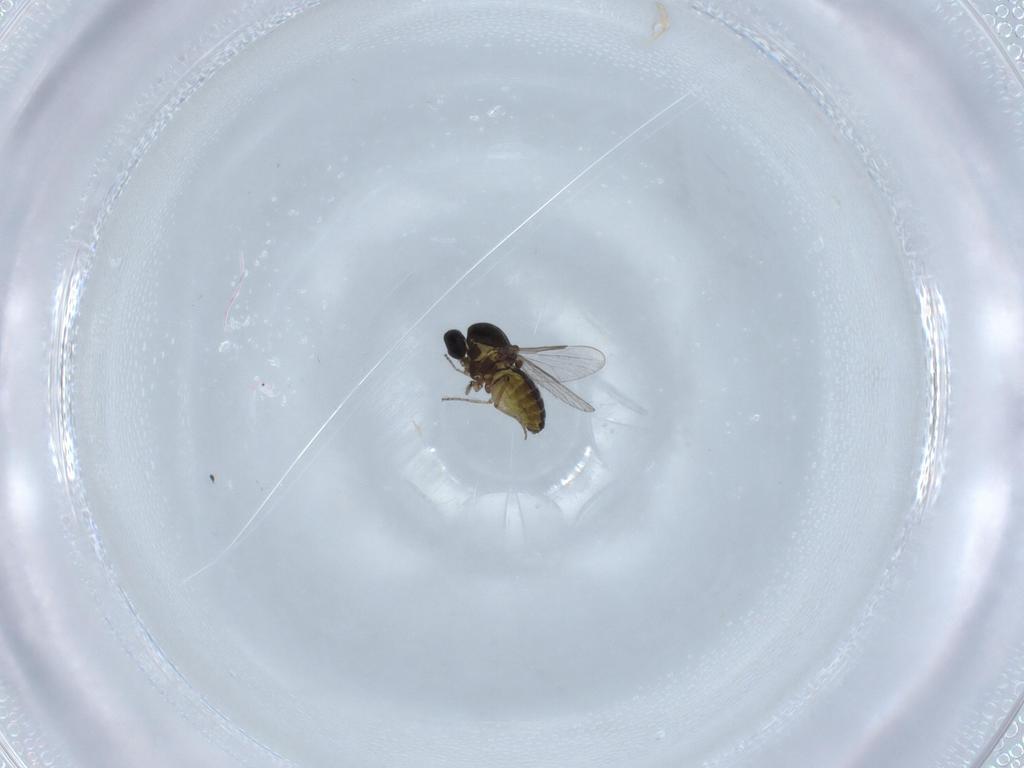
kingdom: Animalia
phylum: Arthropoda
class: Insecta
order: Diptera
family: Ceratopogonidae
